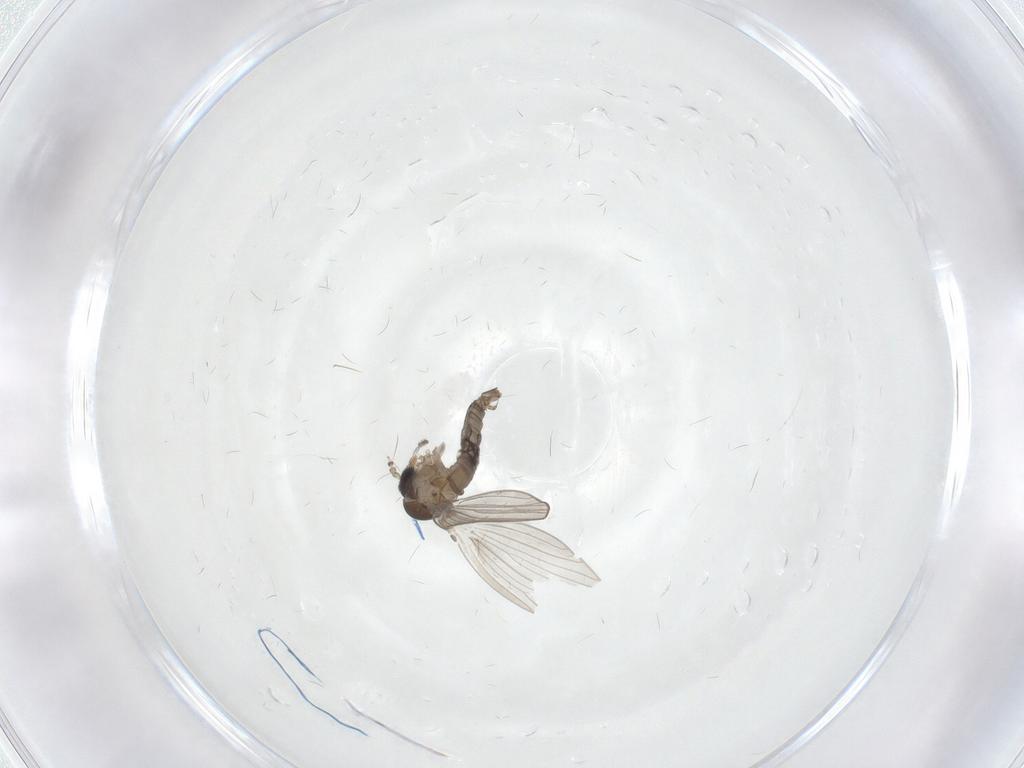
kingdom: Animalia
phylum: Arthropoda
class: Insecta
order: Diptera
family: Psychodidae
